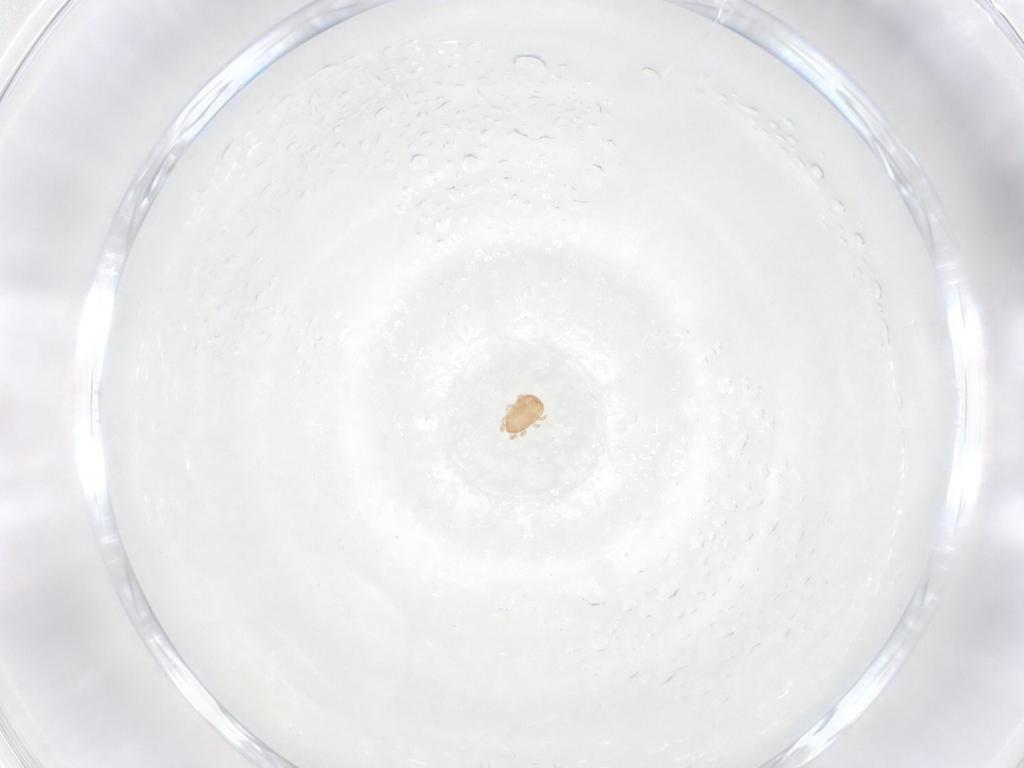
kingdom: Animalia
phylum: Arthropoda
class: Arachnida
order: Mesostigmata
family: Ascidae
